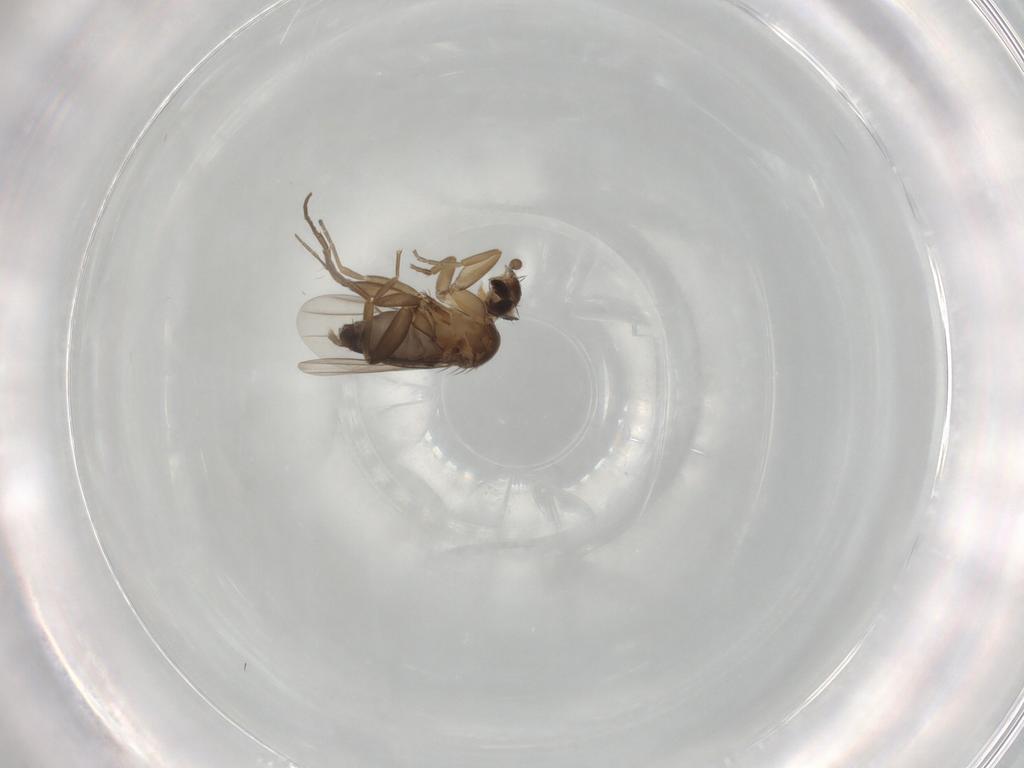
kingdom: Animalia
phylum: Arthropoda
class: Insecta
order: Diptera
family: Phoridae
